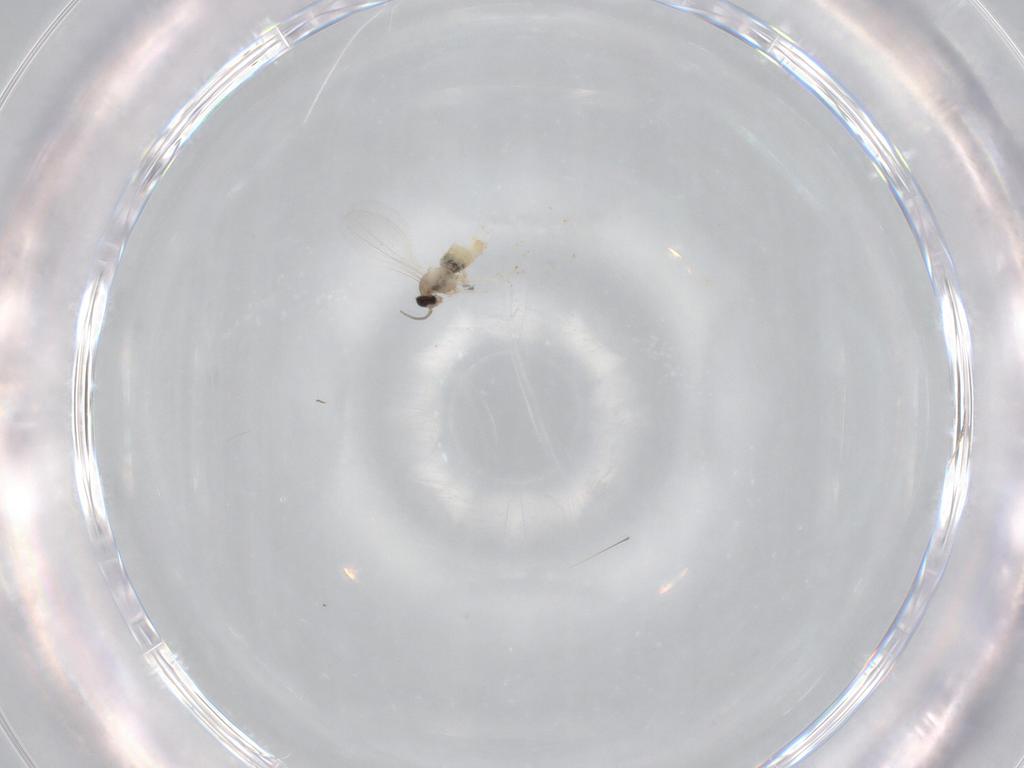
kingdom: Animalia
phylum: Arthropoda
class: Insecta
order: Diptera
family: Cecidomyiidae
